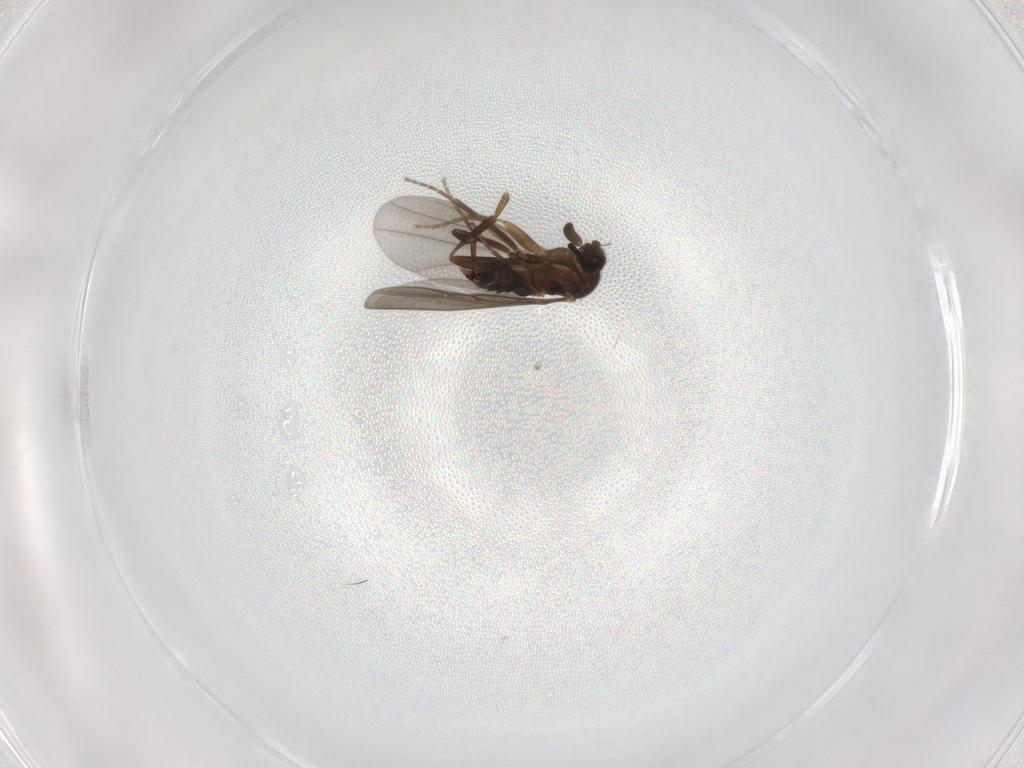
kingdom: Animalia
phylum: Arthropoda
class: Insecta
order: Diptera
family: Phoridae
